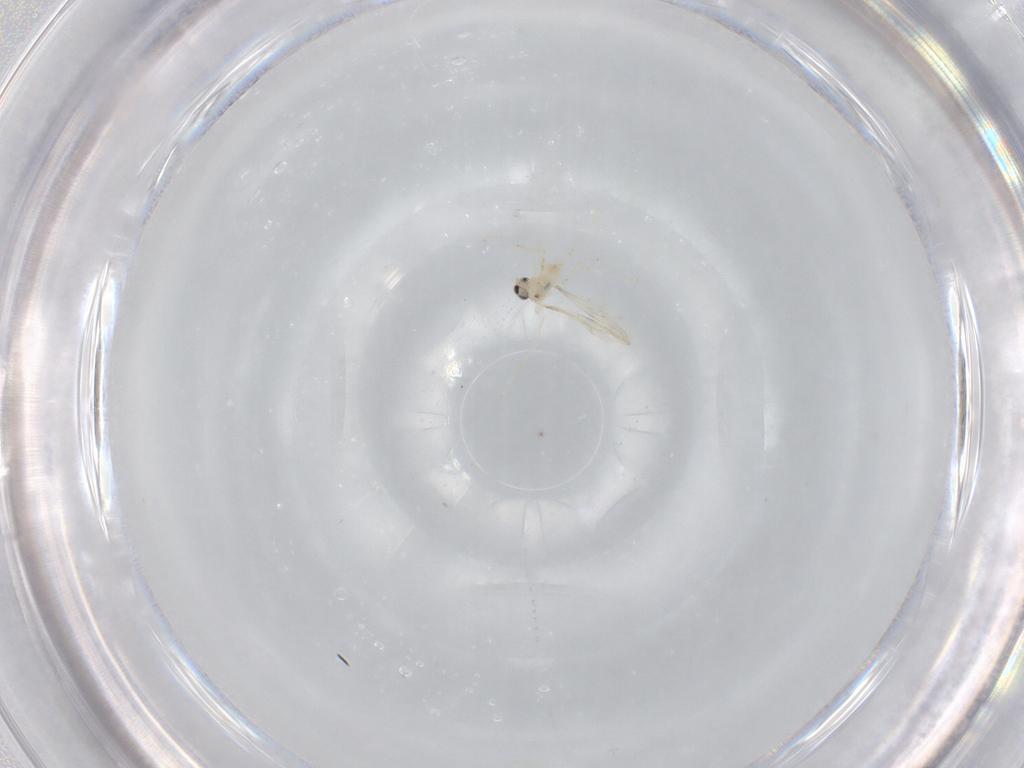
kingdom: Animalia
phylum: Arthropoda
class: Insecta
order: Diptera
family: Cecidomyiidae
